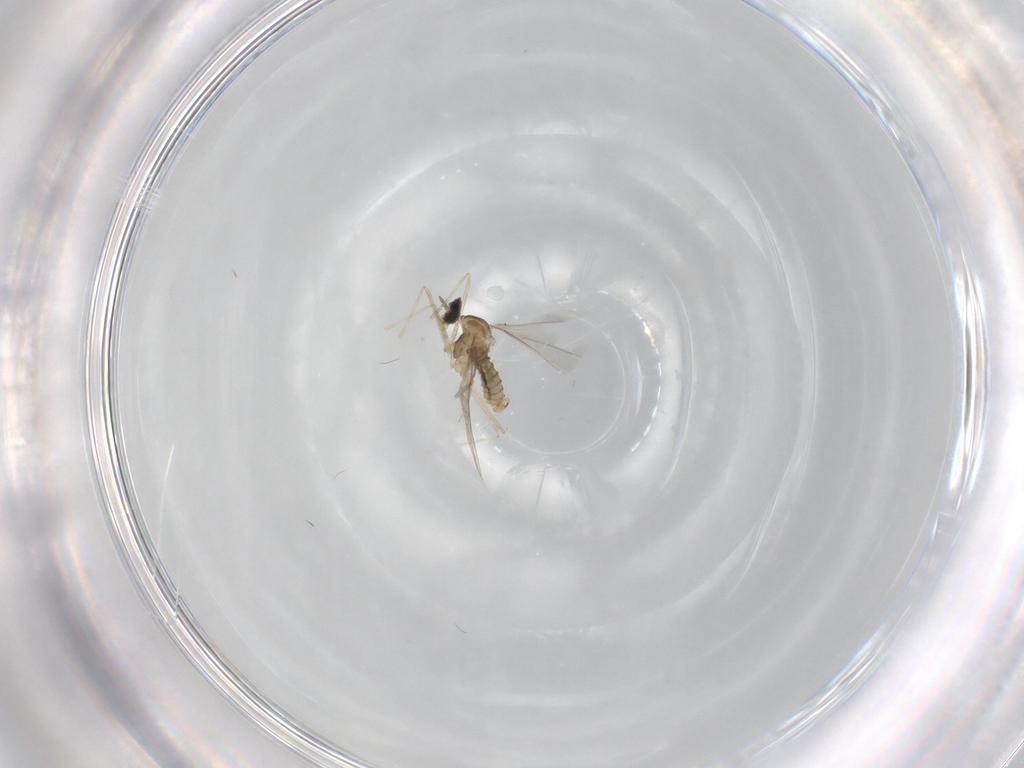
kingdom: Animalia
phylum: Arthropoda
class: Insecta
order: Diptera
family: Cecidomyiidae
